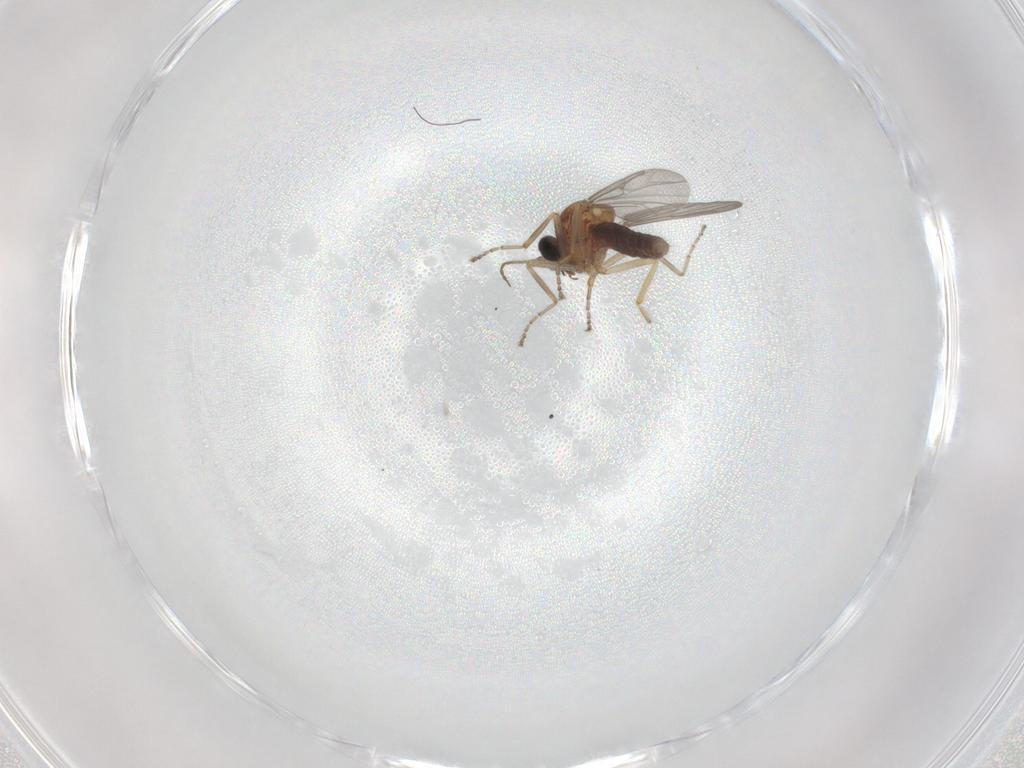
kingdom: Animalia
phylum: Arthropoda
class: Insecta
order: Diptera
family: Ceratopogonidae
